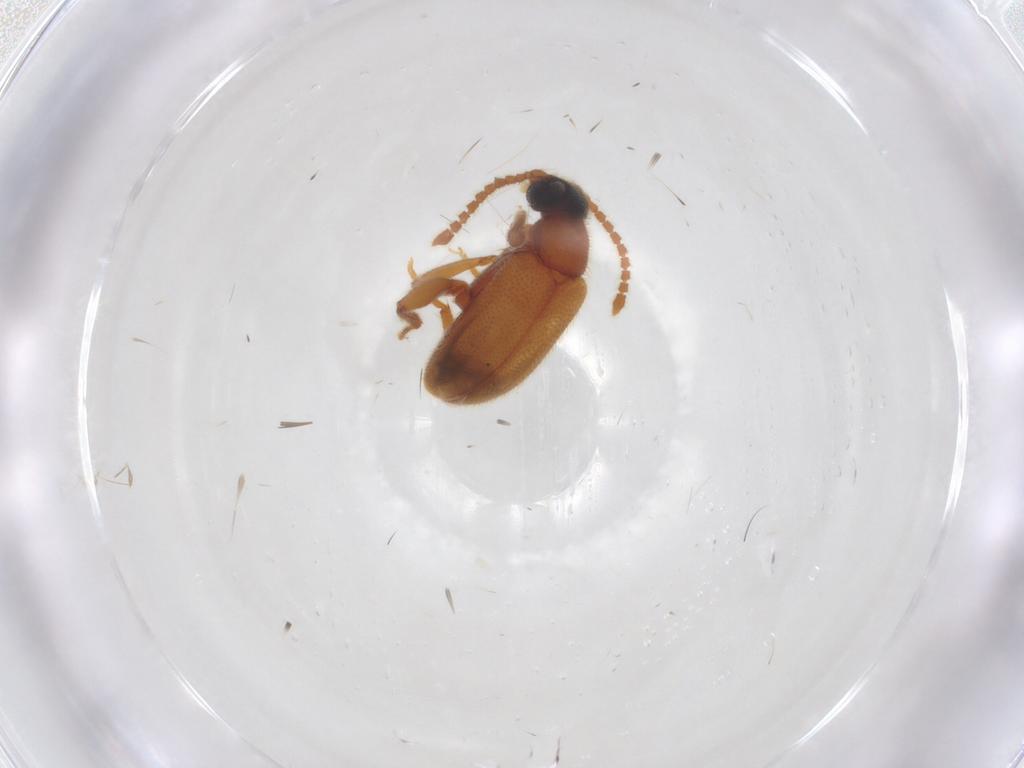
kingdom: Animalia
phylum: Arthropoda
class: Insecta
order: Coleoptera
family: Aderidae
